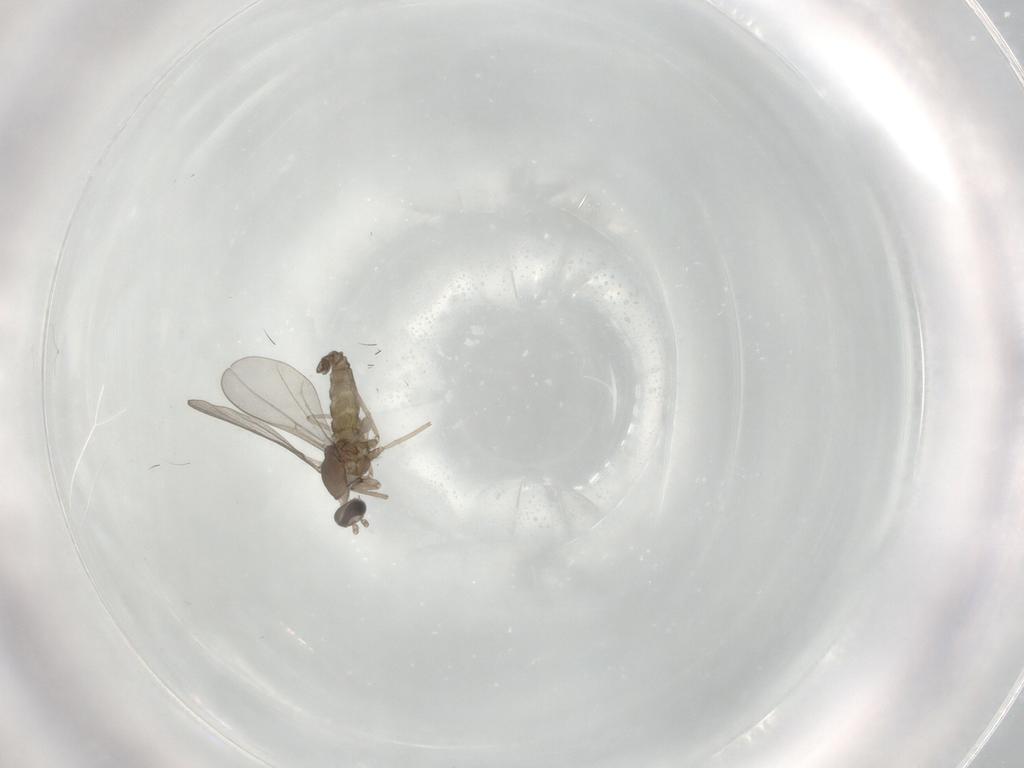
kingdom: Animalia
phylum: Arthropoda
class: Insecta
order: Diptera
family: Cecidomyiidae
